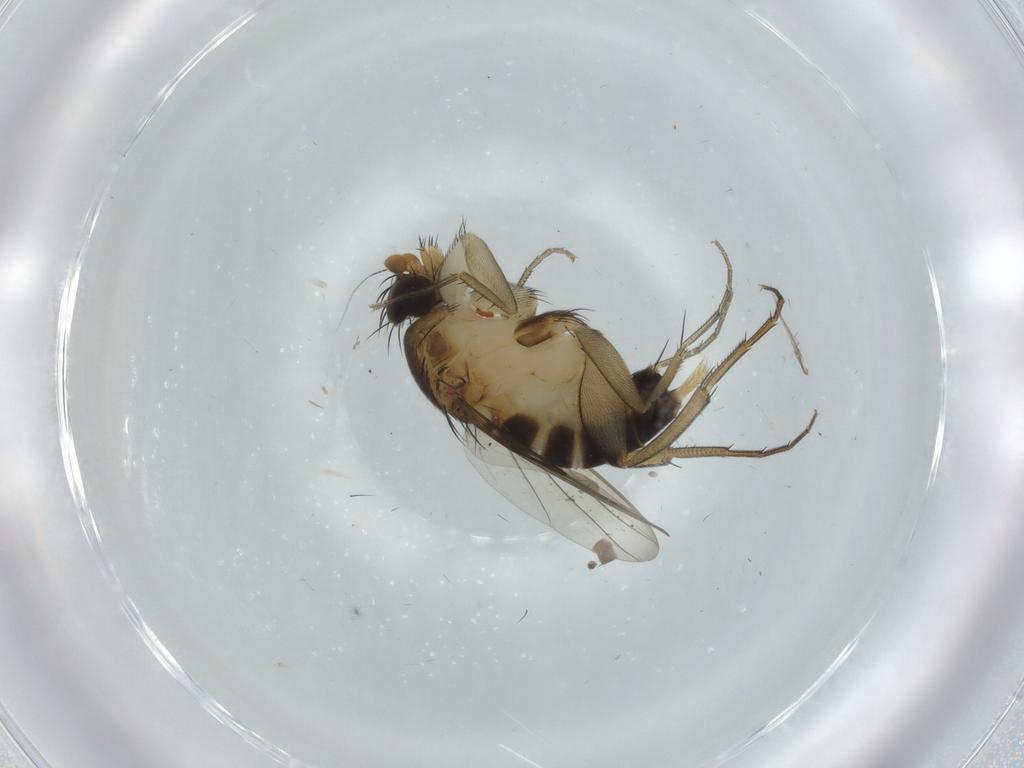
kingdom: Animalia
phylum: Arthropoda
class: Insecta
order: Diptera
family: Phoridae
